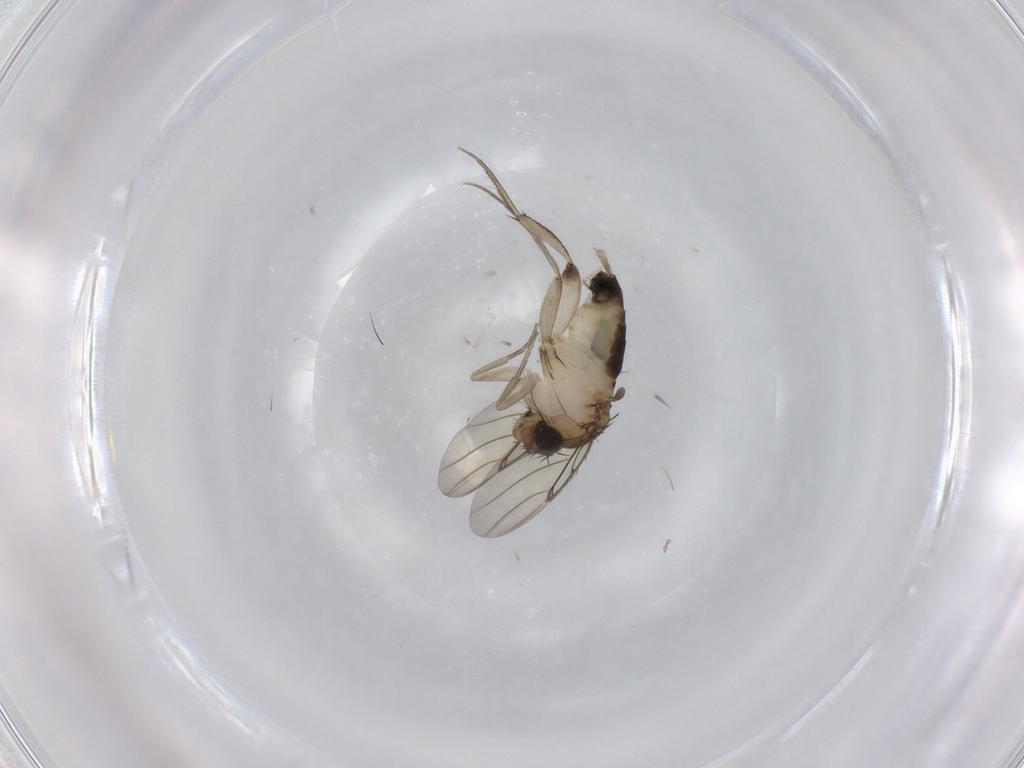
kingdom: Animalia
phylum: Arthropoda
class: Insecta
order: Diptera
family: Phoridae
